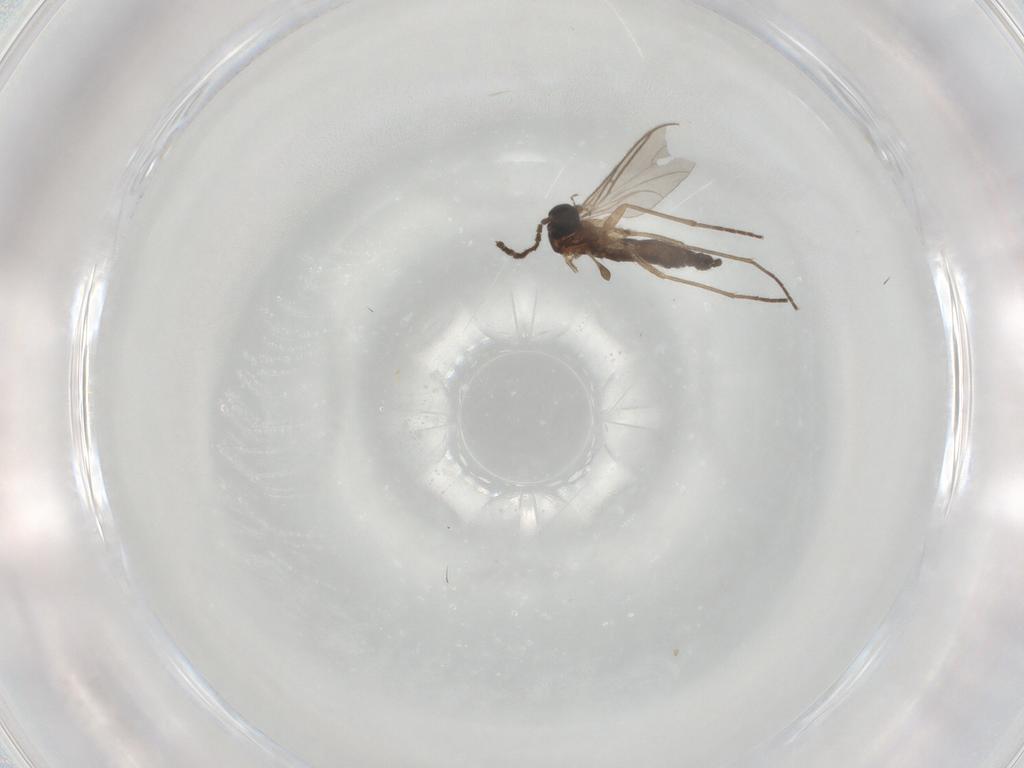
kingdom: Animalia
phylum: Arthropoda
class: Insecta
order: Diptera
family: Sciaridae
